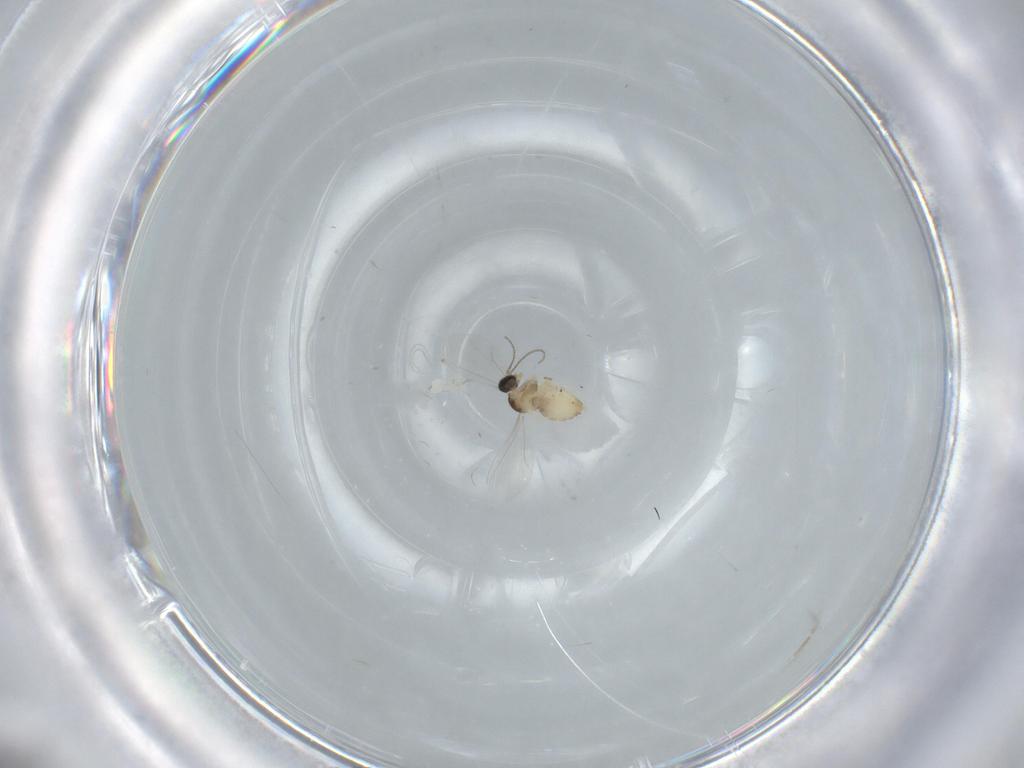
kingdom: Animalia
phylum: Arthropoda
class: Insecta
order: Diptera
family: Cecidomyiidae
